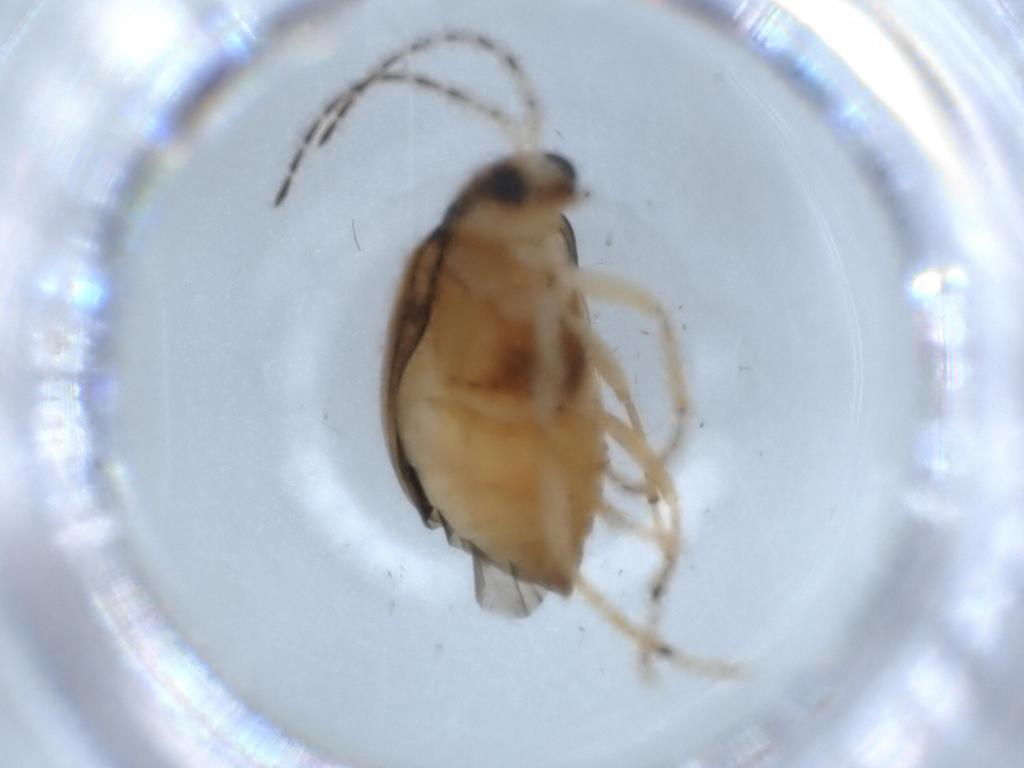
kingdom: Animalia
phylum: Arthropoda
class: Insecta
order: Coleoptera
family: Chrysomelidae
